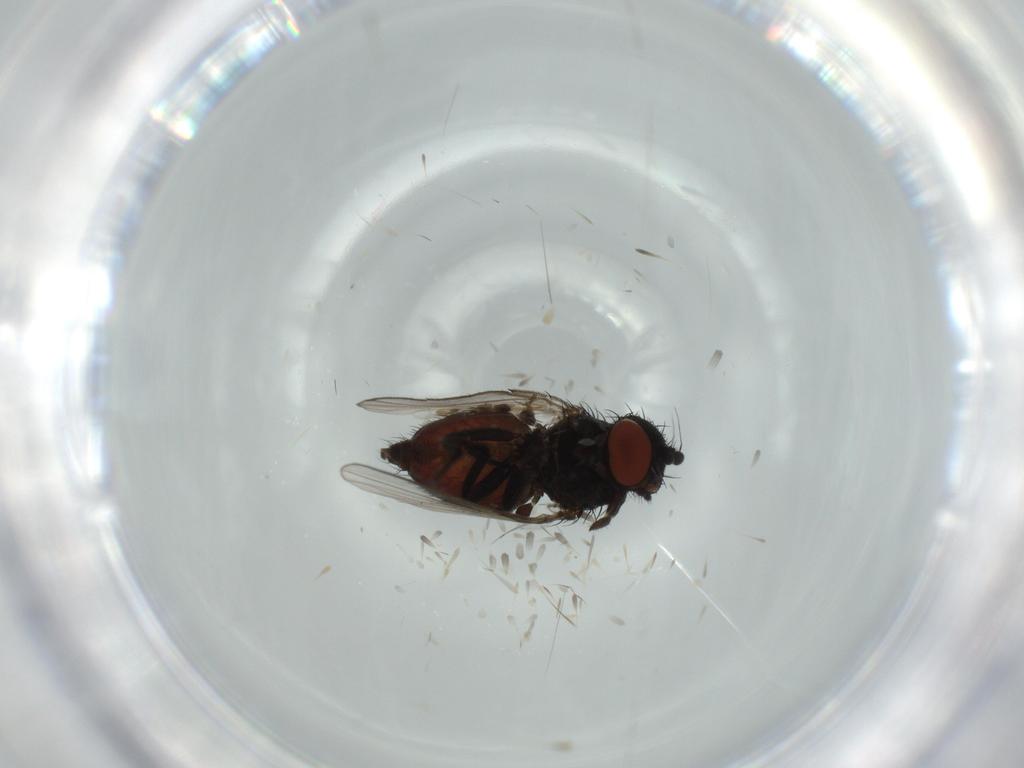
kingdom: Animalia
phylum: Arthropoda
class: Insecta
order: Diptera
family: Milichiidae
